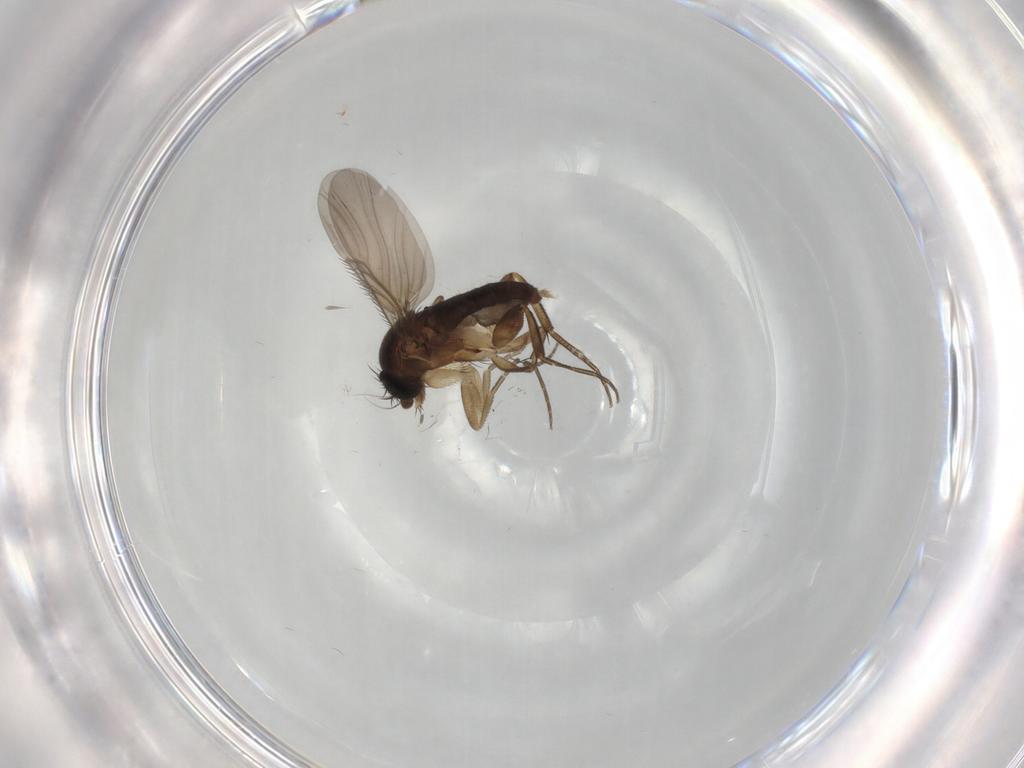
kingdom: Animalia
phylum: Arthropoda
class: Insecta
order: Diptera
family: Phoridae
